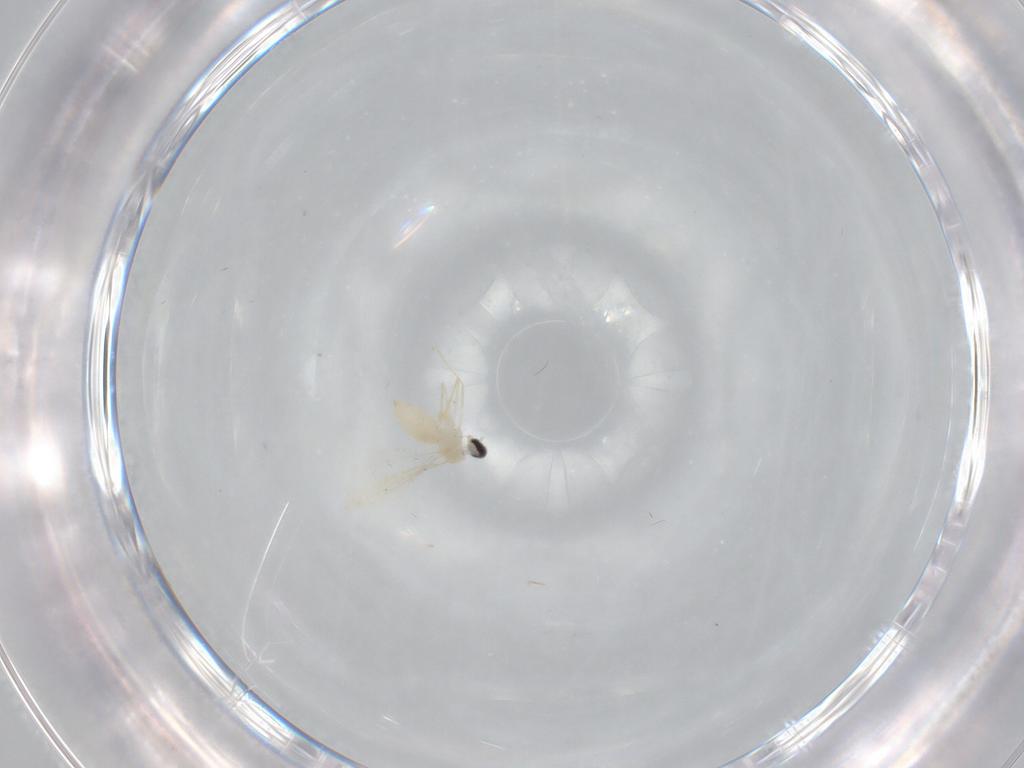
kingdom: Animalia
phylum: Arthropoda
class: Insecta
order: Diptera
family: Cecidomyiidae
